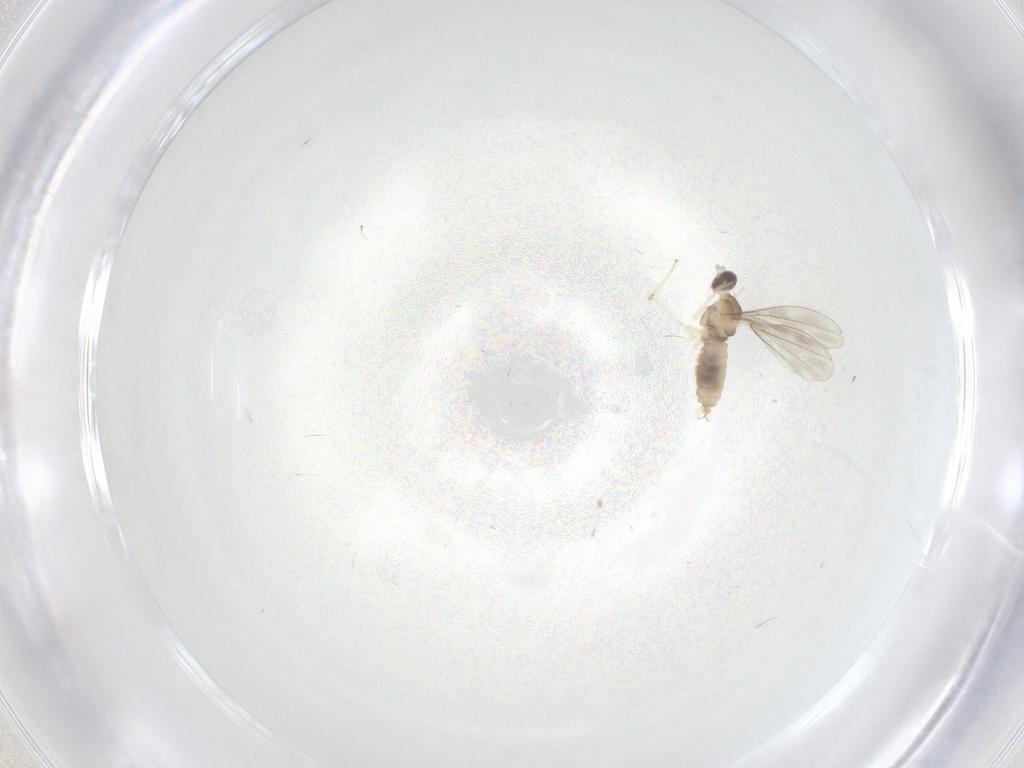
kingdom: Animalia
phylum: Arthropoda
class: Insecta
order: Diptera
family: Cecidomyiidae
